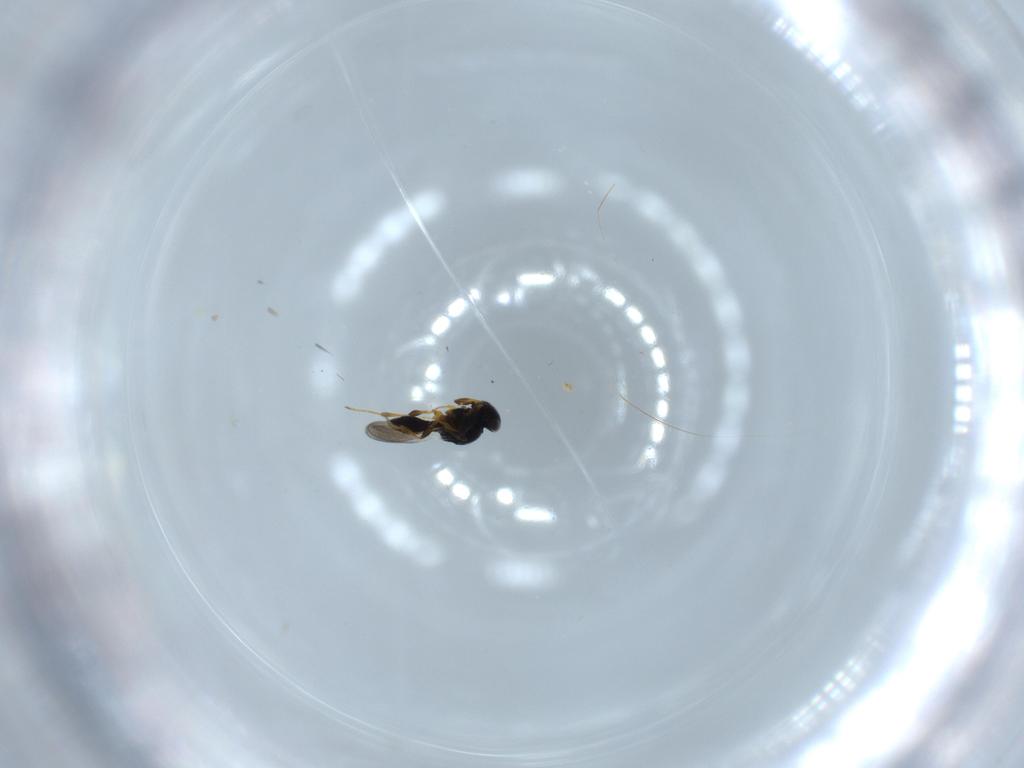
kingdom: Animalia
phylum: Arthropoda
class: Insecta
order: Hymenoptera
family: Platygastridae
